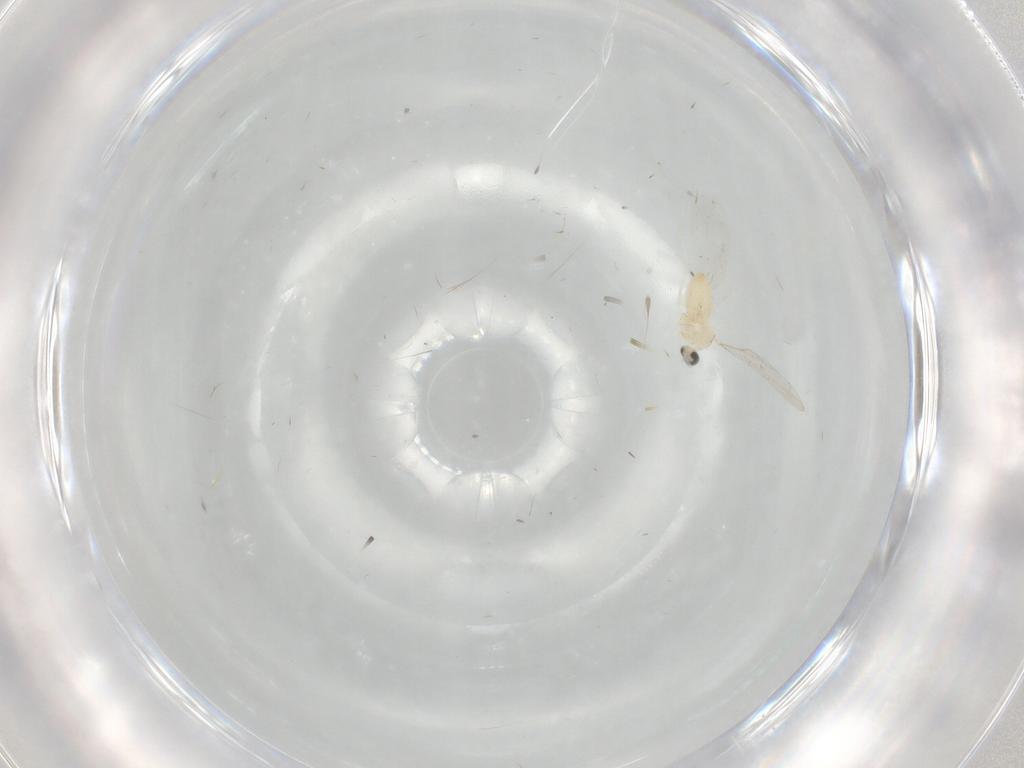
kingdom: Animalia
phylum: Arthropoda
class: Insecta
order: Diptera
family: Cecidomyiidae
